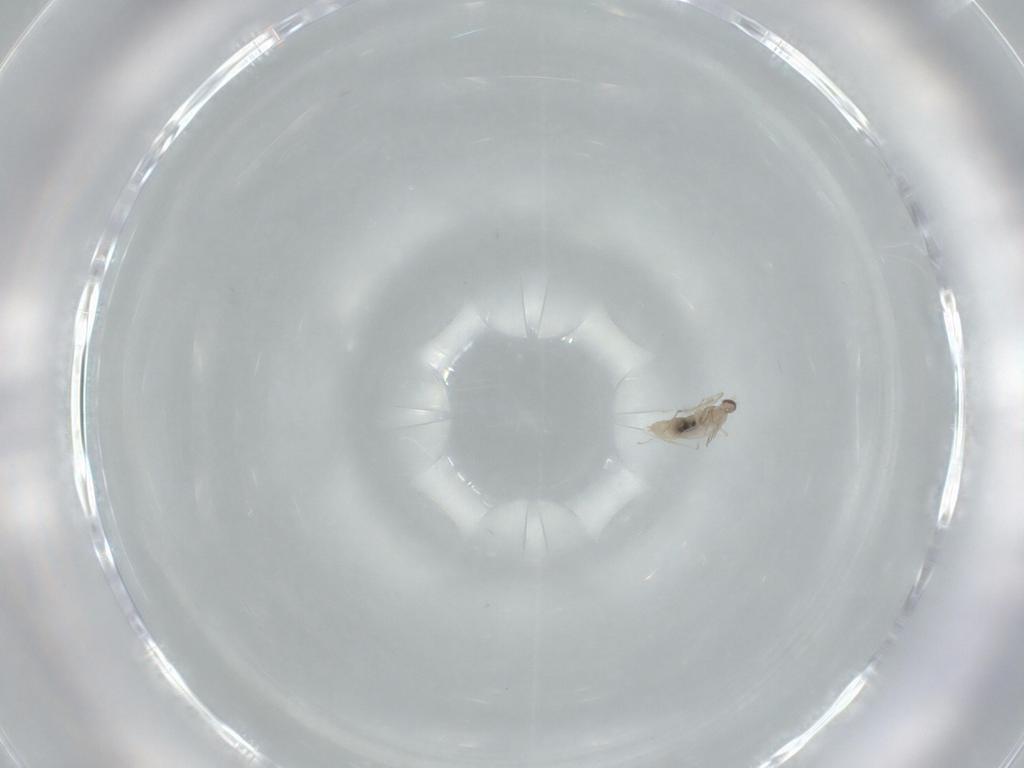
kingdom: Animalia
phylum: Arthropoda
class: Insecta
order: Diptera
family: Cecidomyiidae
